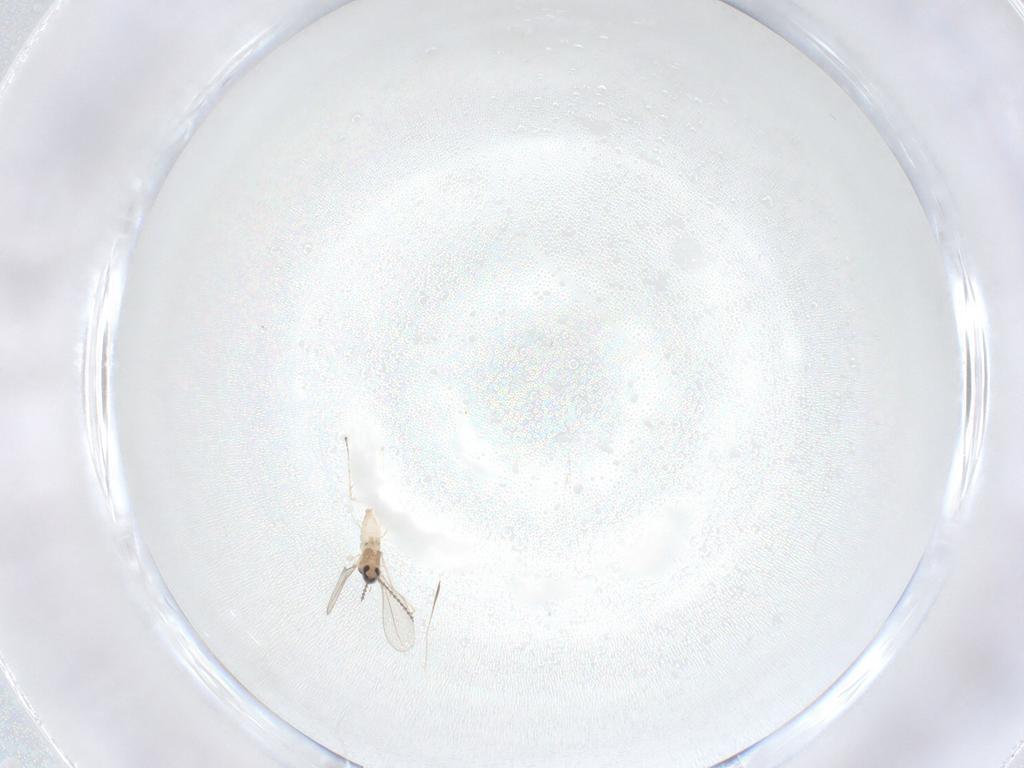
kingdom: Animalia
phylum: Arthropoda
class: Insecta
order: Diptera
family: Cecidomyiidae
